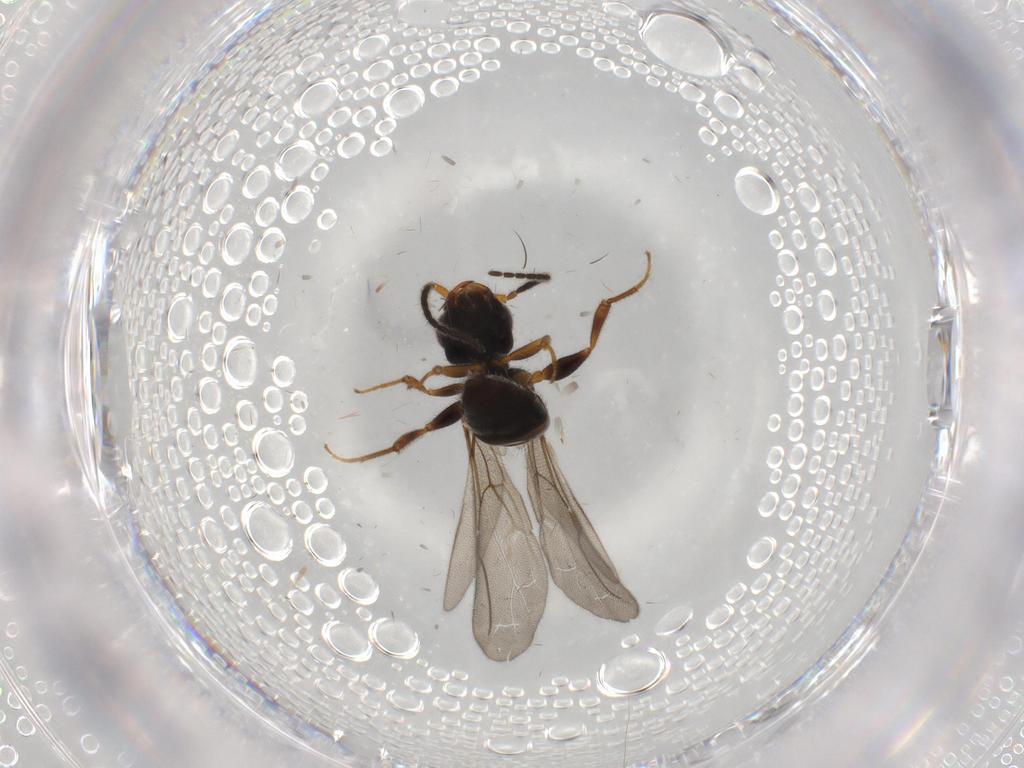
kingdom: Animalia
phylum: Arthropoda
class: Insecta
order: Hymenoptera
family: Bethylidae
